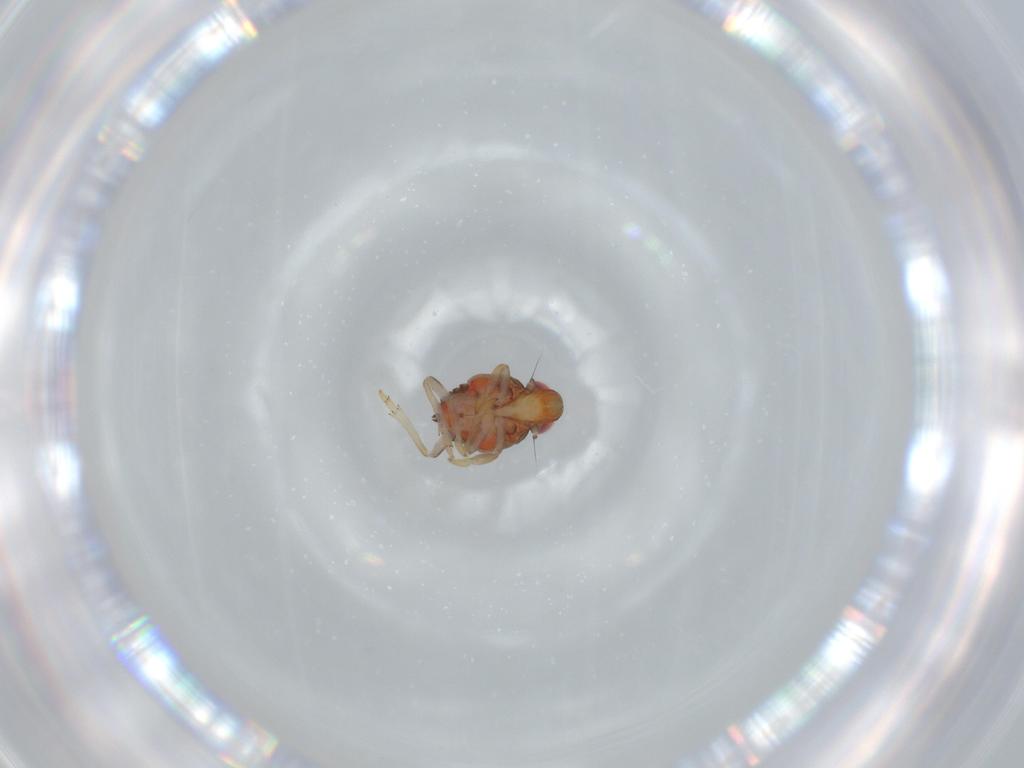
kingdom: Animalia
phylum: Arthropoda
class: Insecta
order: Hemiptera
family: Issidae
